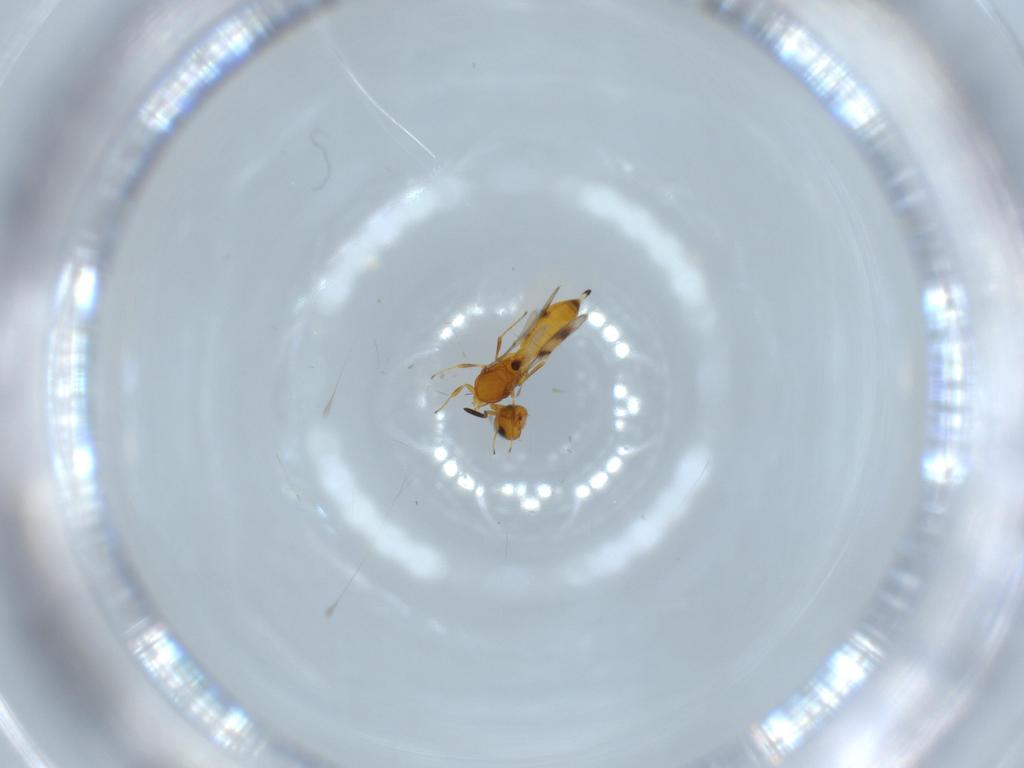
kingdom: Animalia
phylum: Arthropoda
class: Insecta
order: Hymenoptera
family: Scelionidae
